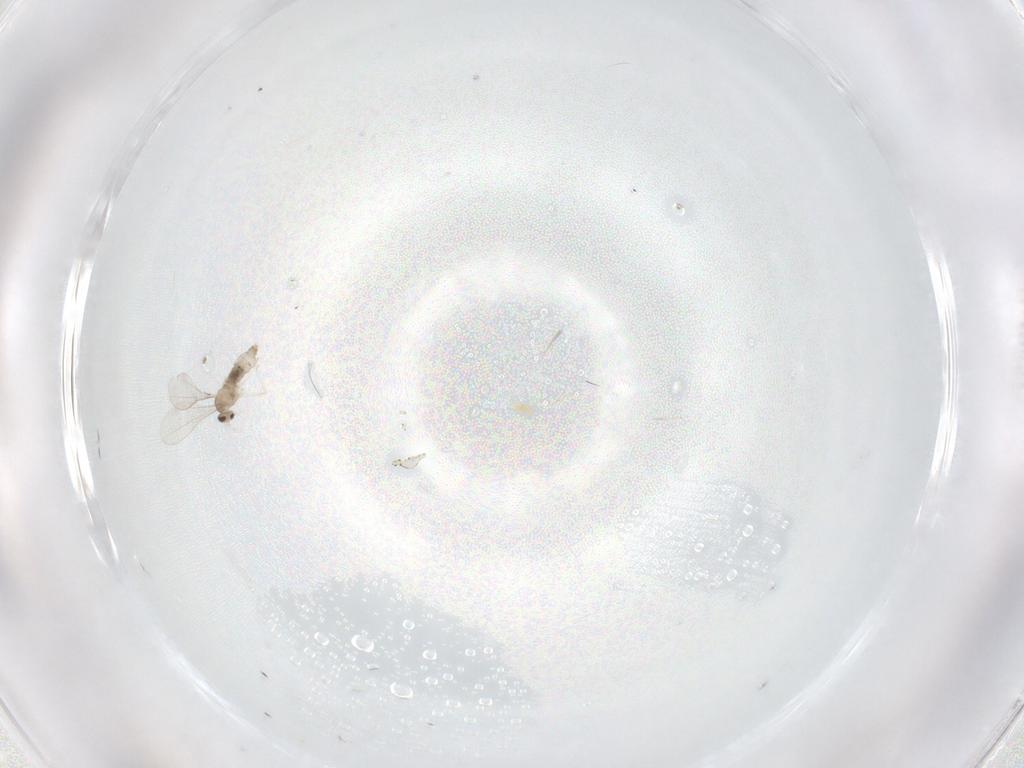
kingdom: Animalia
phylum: Arthropoda
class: Insecta
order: Diptera
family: Cecidomyiidae
